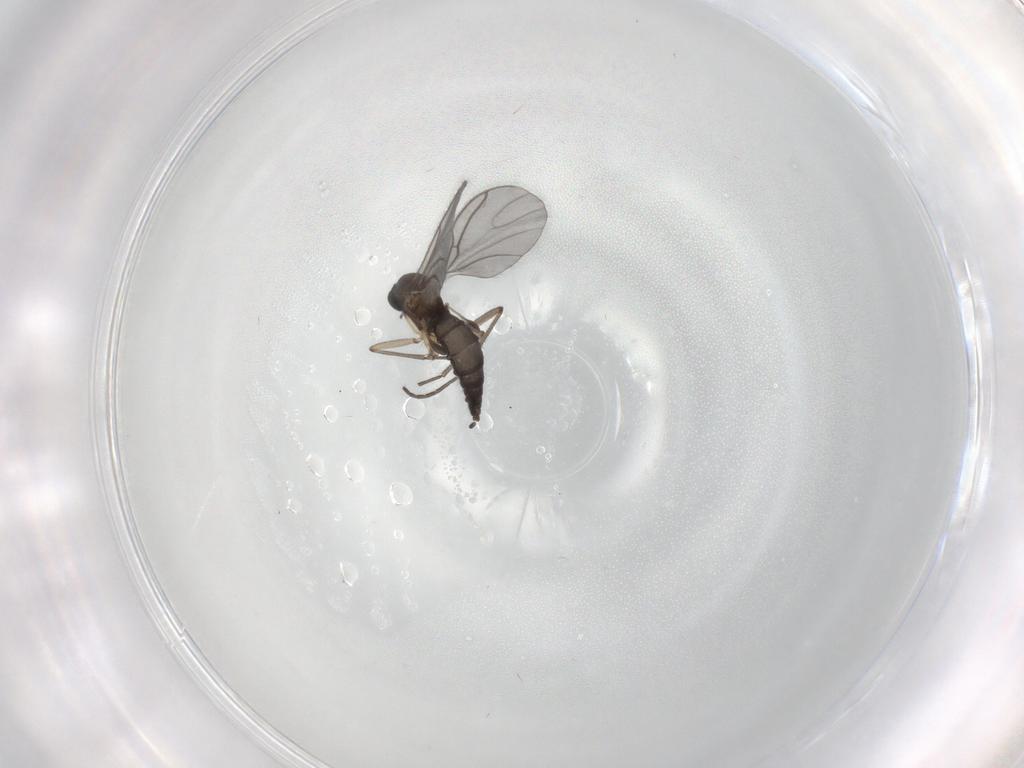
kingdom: Animalia
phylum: Arthropoda
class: Insecta
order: Diptera
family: Sciaridae
